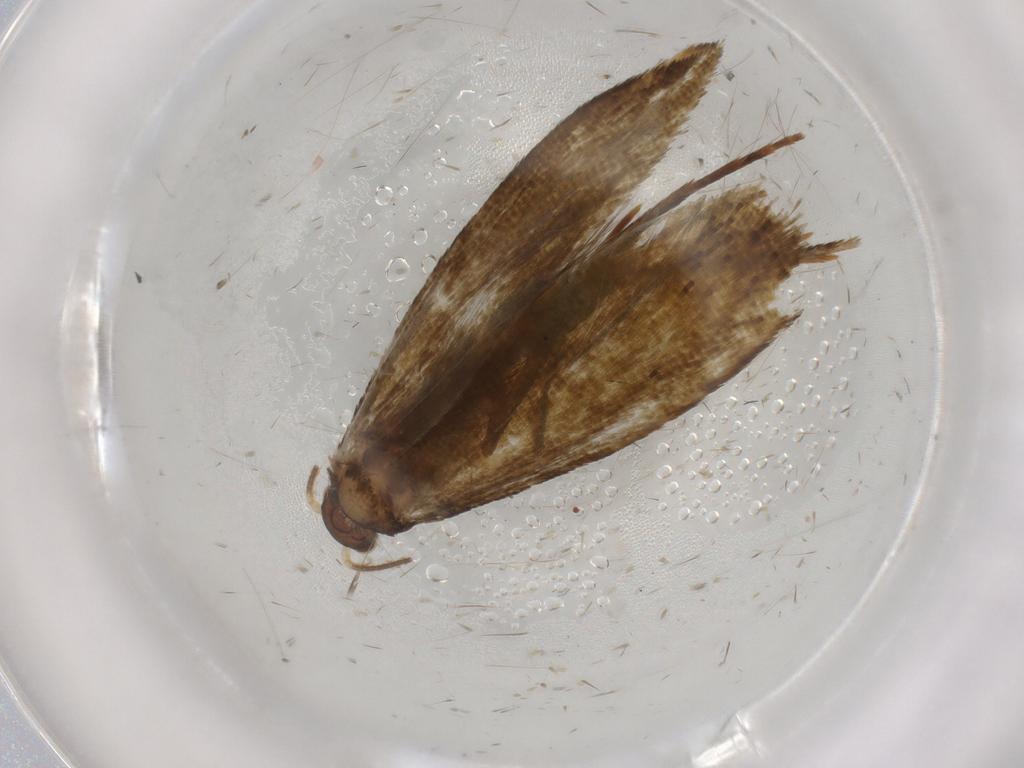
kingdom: Animalia
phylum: Arthropoda
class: Insecta
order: Lepidoptera
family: Tineidae
